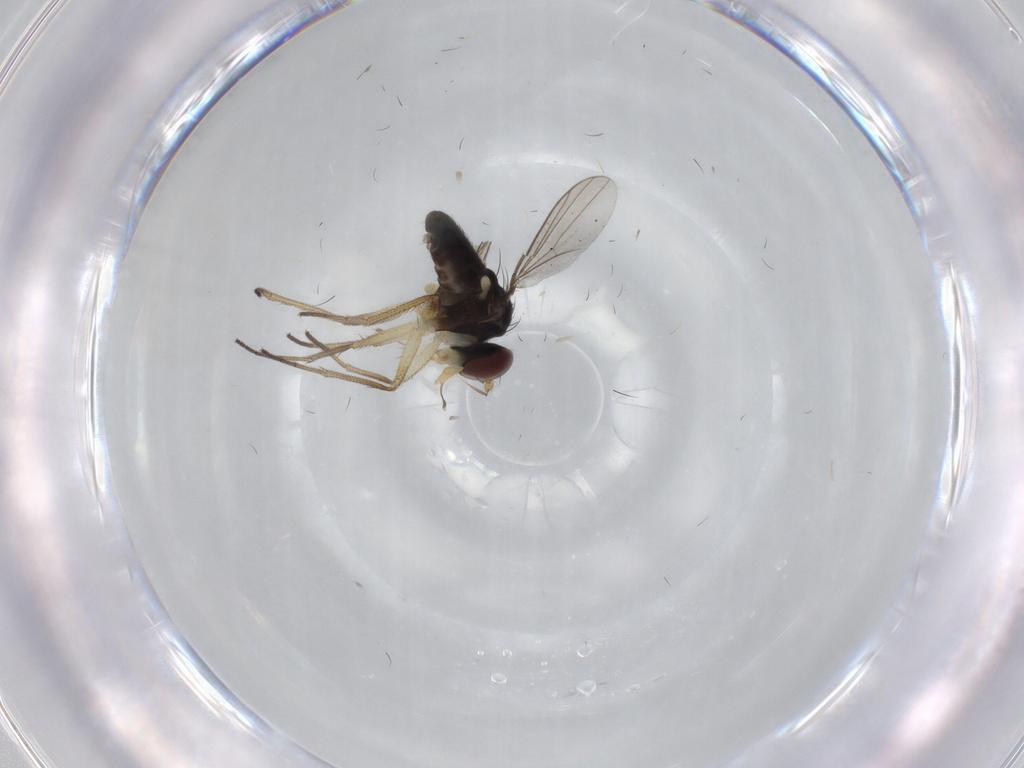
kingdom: Animalia
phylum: Arthropoda
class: Insecta
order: Diptera
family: Dolichopodidae
